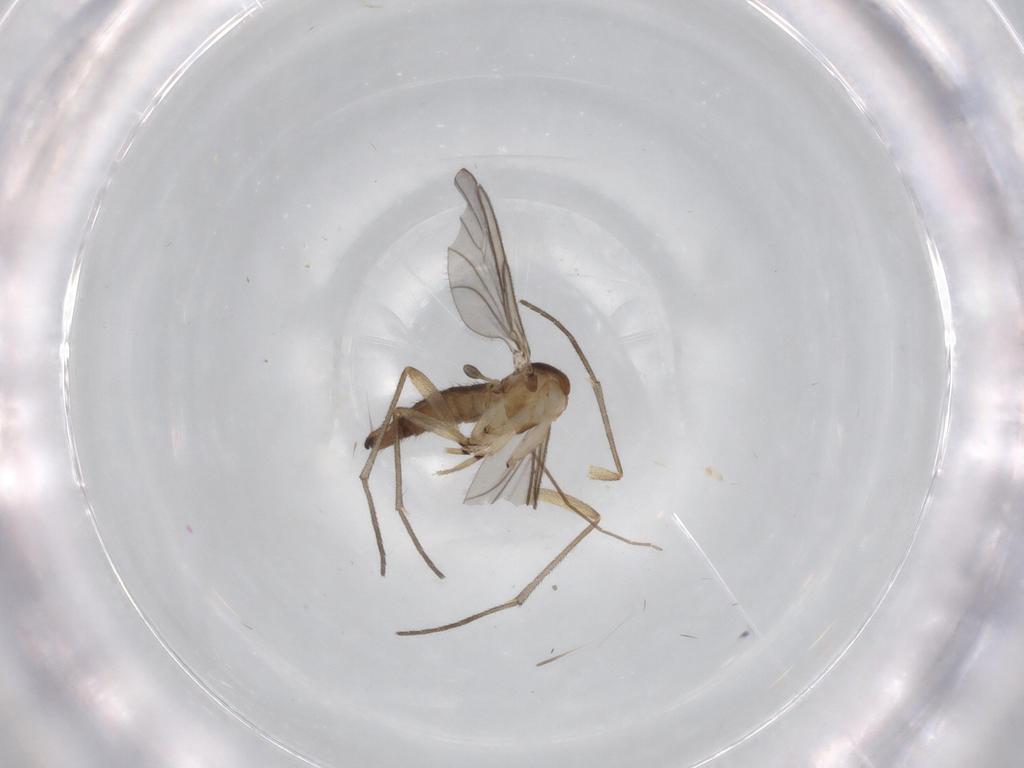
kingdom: Animalia
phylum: Arthropoda
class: Insecta
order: Diptera
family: Sciaridae
